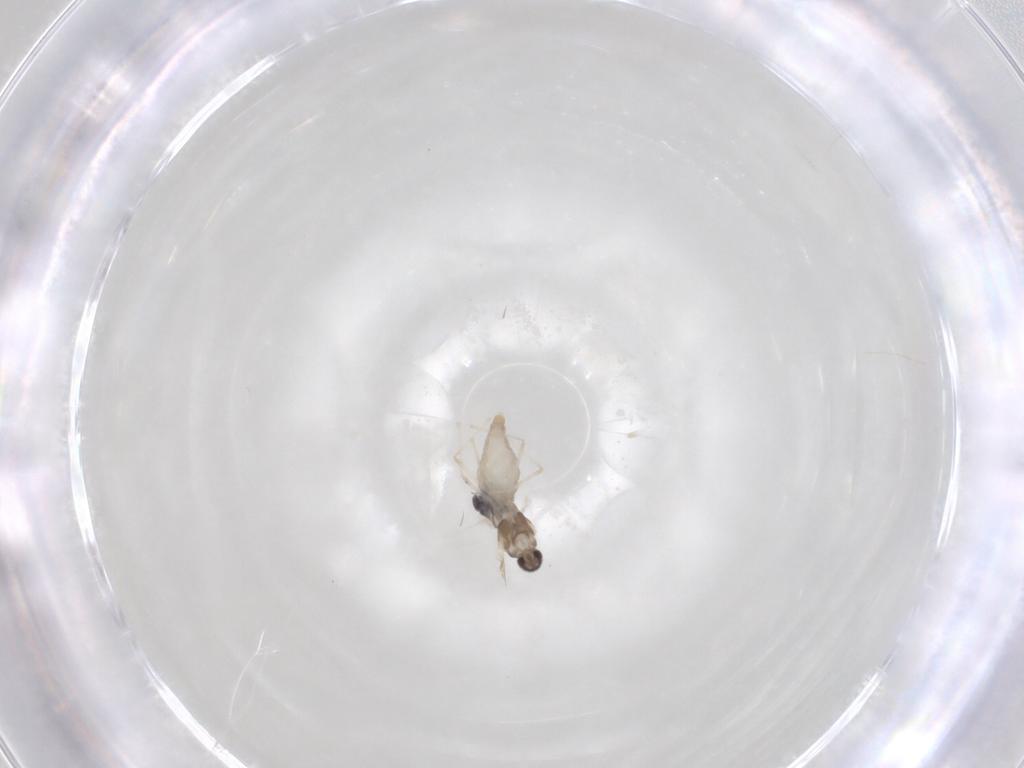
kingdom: Animalia
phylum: Arthropoda
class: Insecta
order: Diptera
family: Cecidomyiidae
